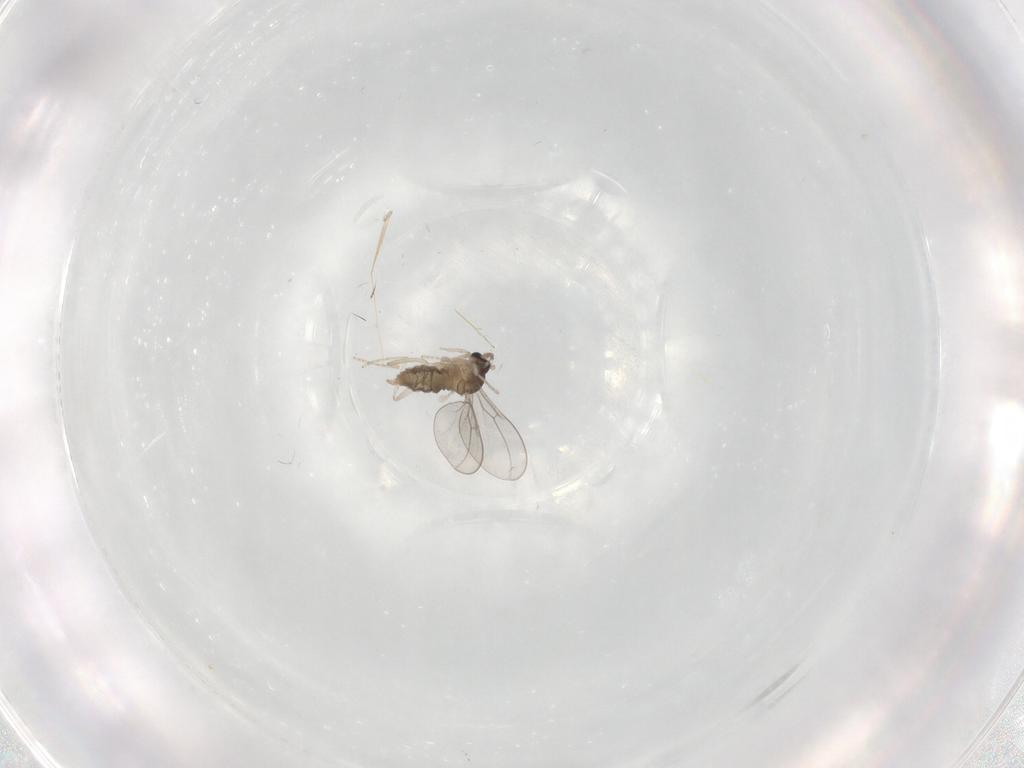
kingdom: Animalia
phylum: Arthropoda
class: Insecta
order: Diptera
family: Cecidomyiidae
